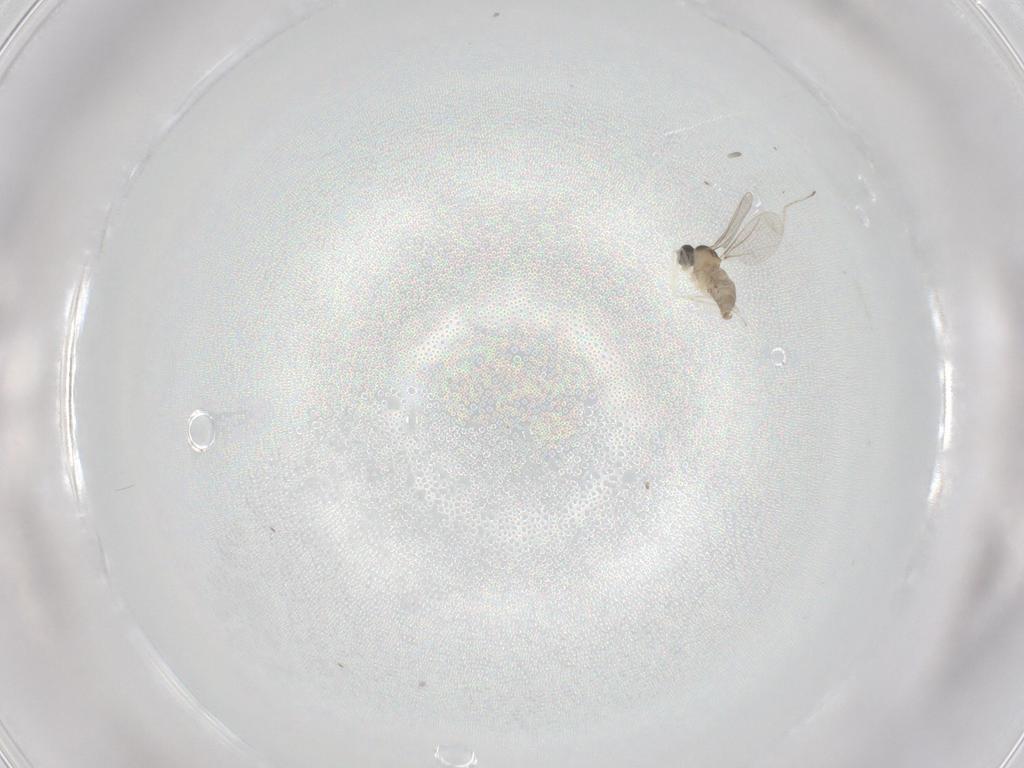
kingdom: Animalia
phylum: Arthropoda
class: Insecta
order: Diptera
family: Cecidomyiidae
